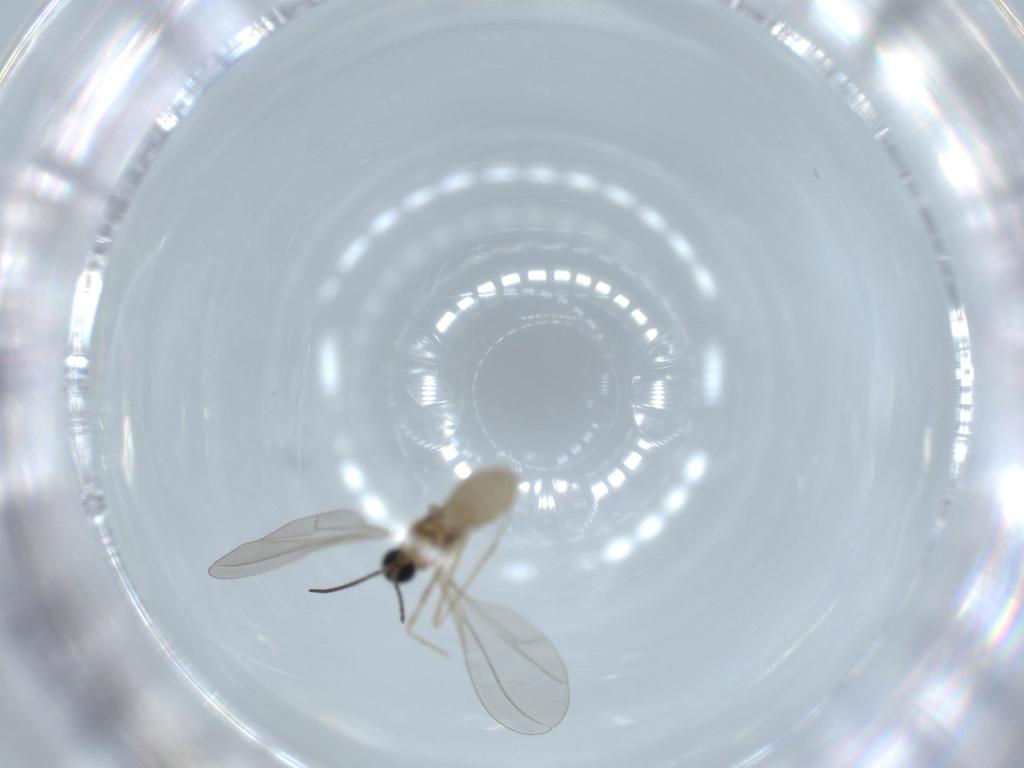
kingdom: Animalia
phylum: Arthropoda
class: Insecta
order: Diptera
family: Cecidomyiidae
